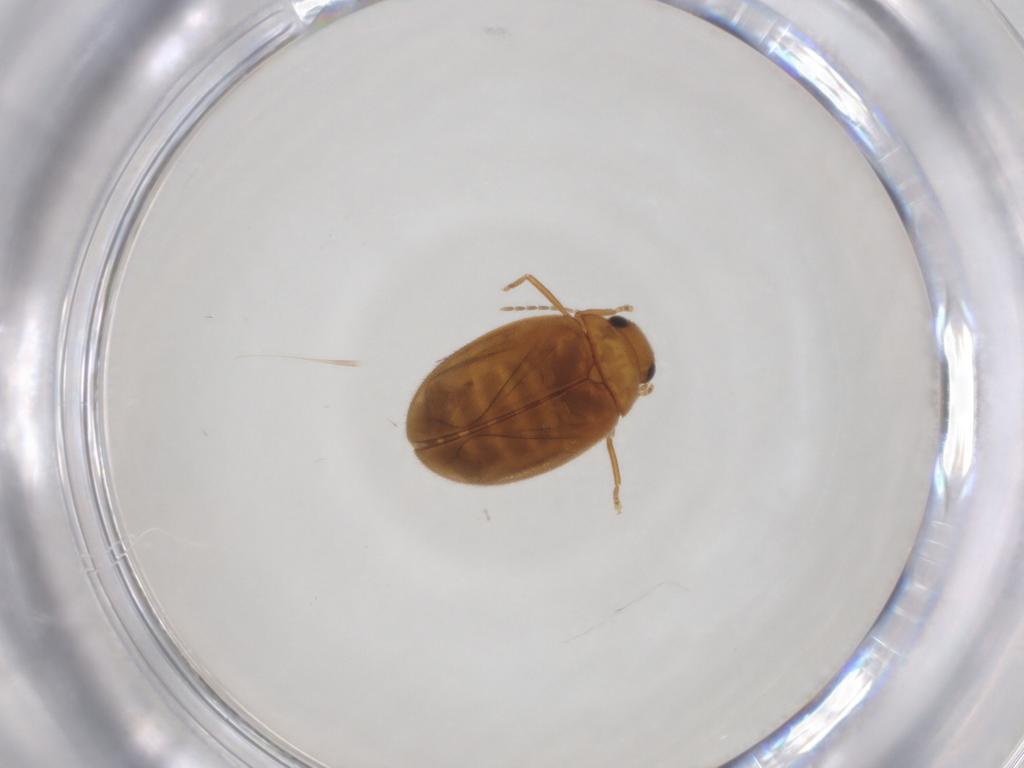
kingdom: Animalia
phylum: Arthropoda
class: Insecta
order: Coleoptera
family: Scirtidae
